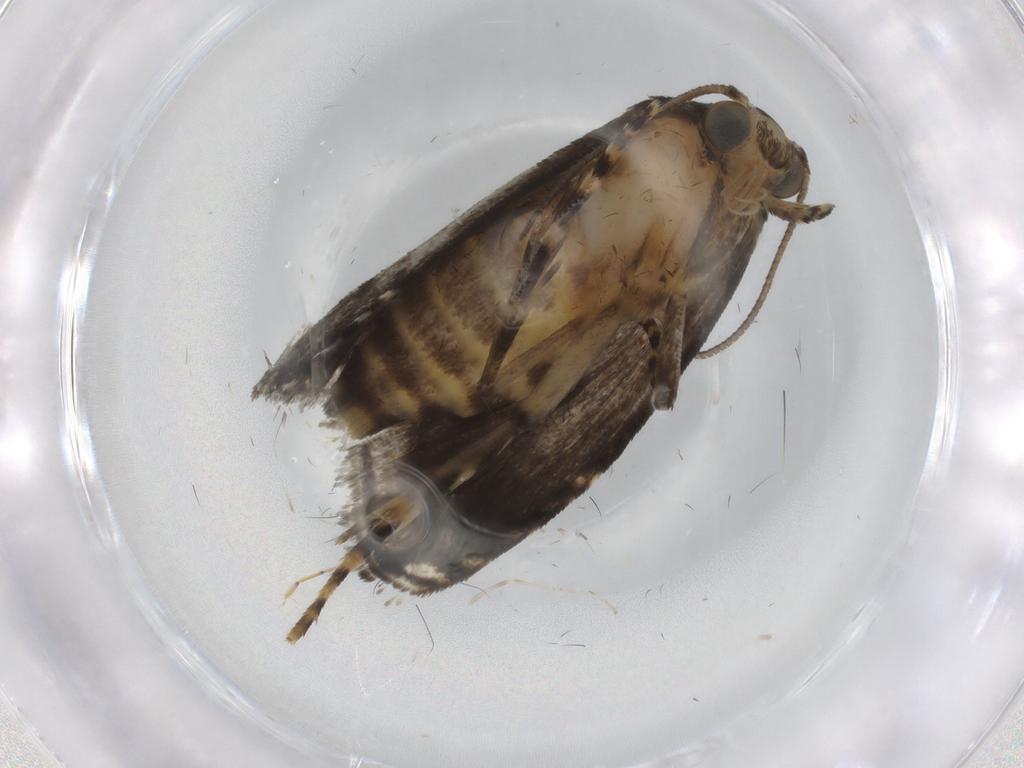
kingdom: Animalia
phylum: Arthropoda
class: Insecta
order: Lepidoptera
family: Immidae
